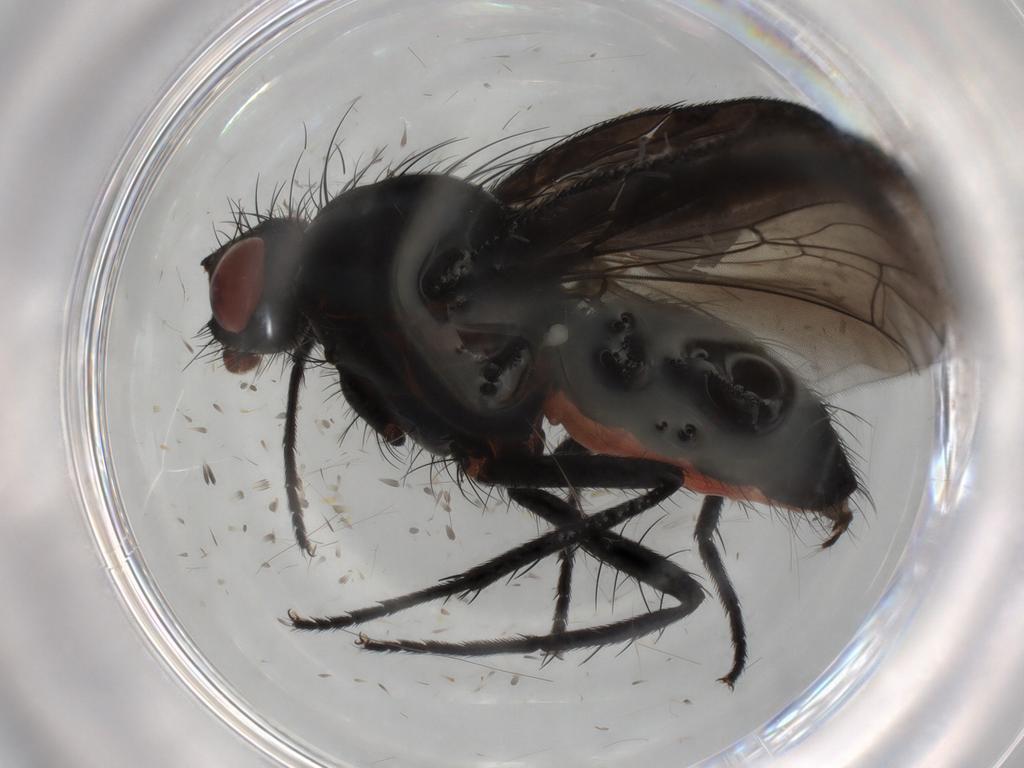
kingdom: Animalia
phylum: Arthropoda
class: Insecta
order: Diptera
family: Anthomyiidae
